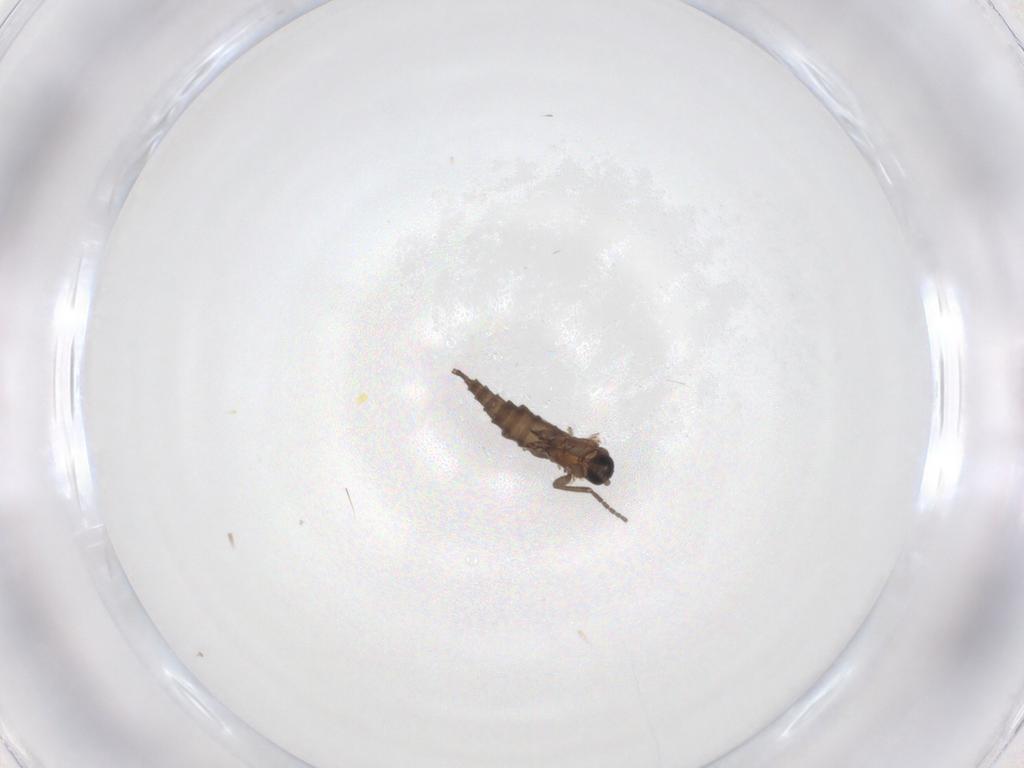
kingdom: Animalia
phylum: Arthropoda
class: Insecta
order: Diptera
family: Sciaridae
